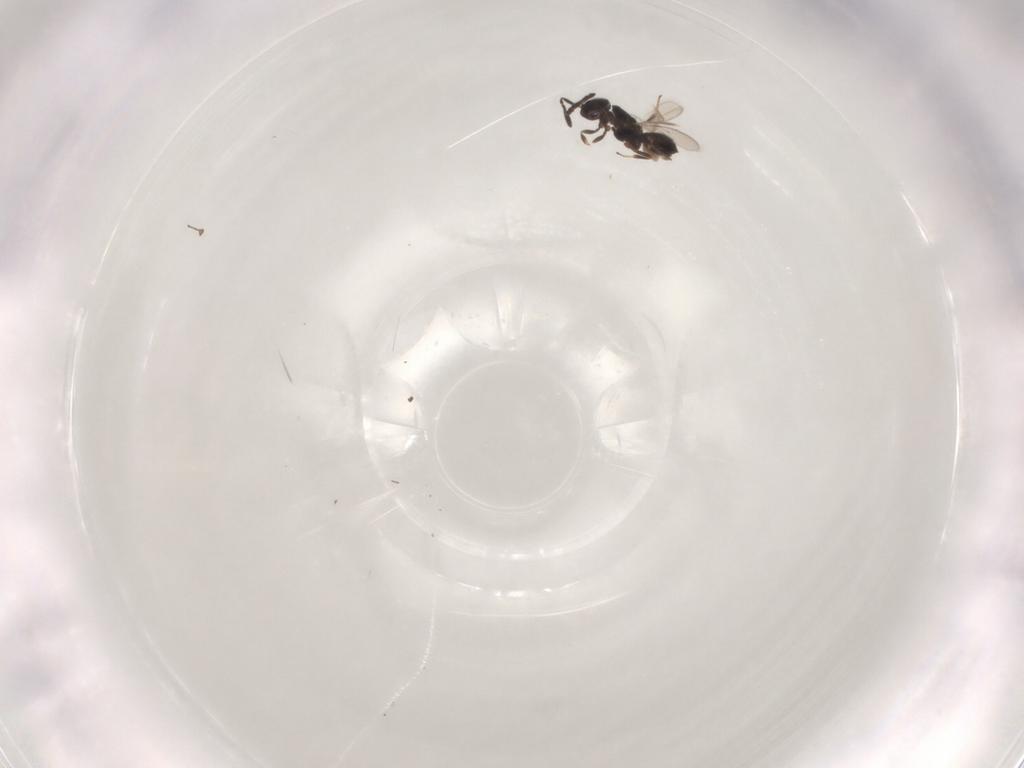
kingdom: Animalia
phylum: Arthropoda
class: Insecta
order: Hymenoptera
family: Scelionidae
